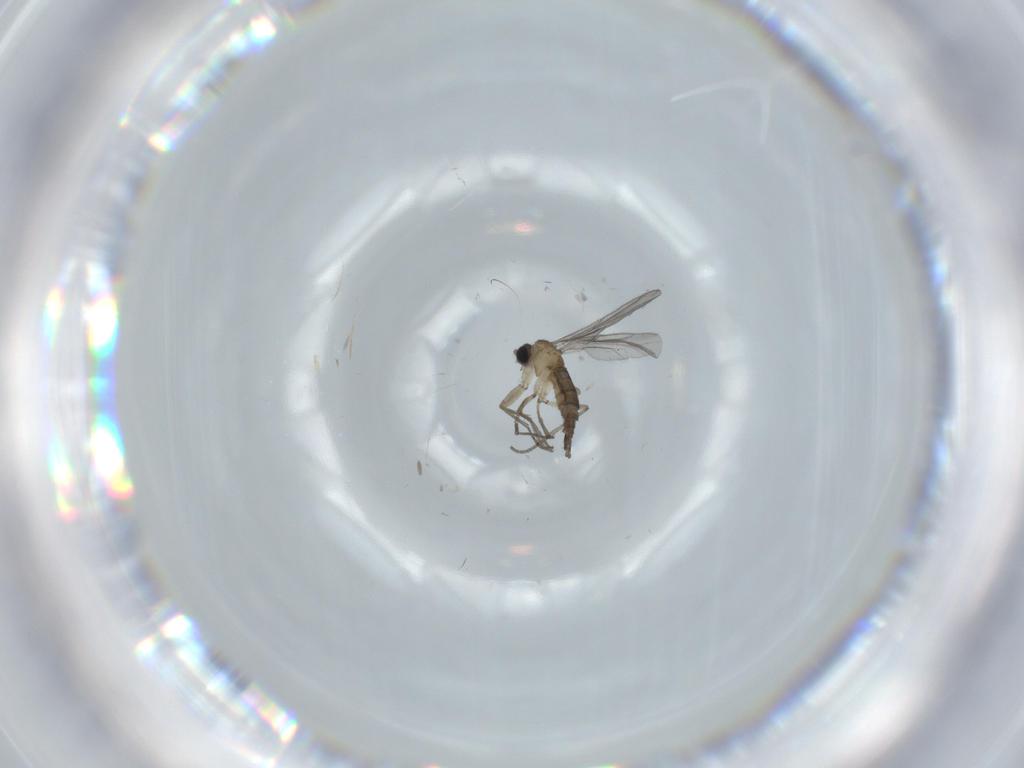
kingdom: Animalia
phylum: Arthropoda
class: Insecta
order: Diptera
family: Sciaridae
